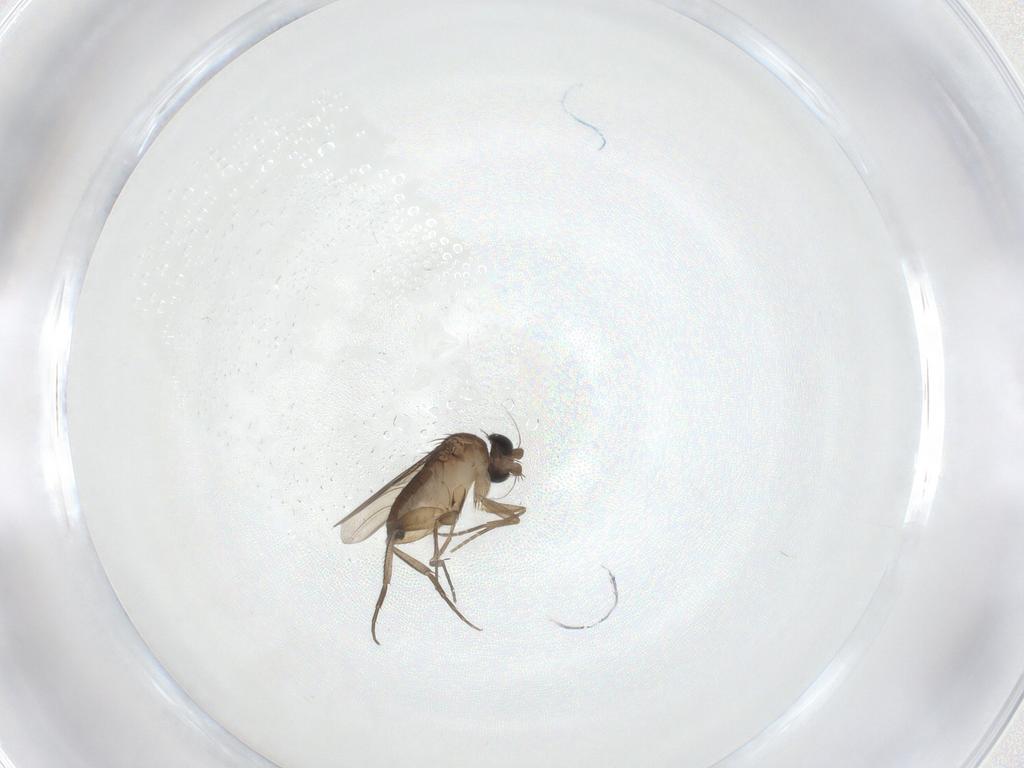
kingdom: Animalia
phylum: Arthropoda
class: Insecta
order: Diptera
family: Phoridae
